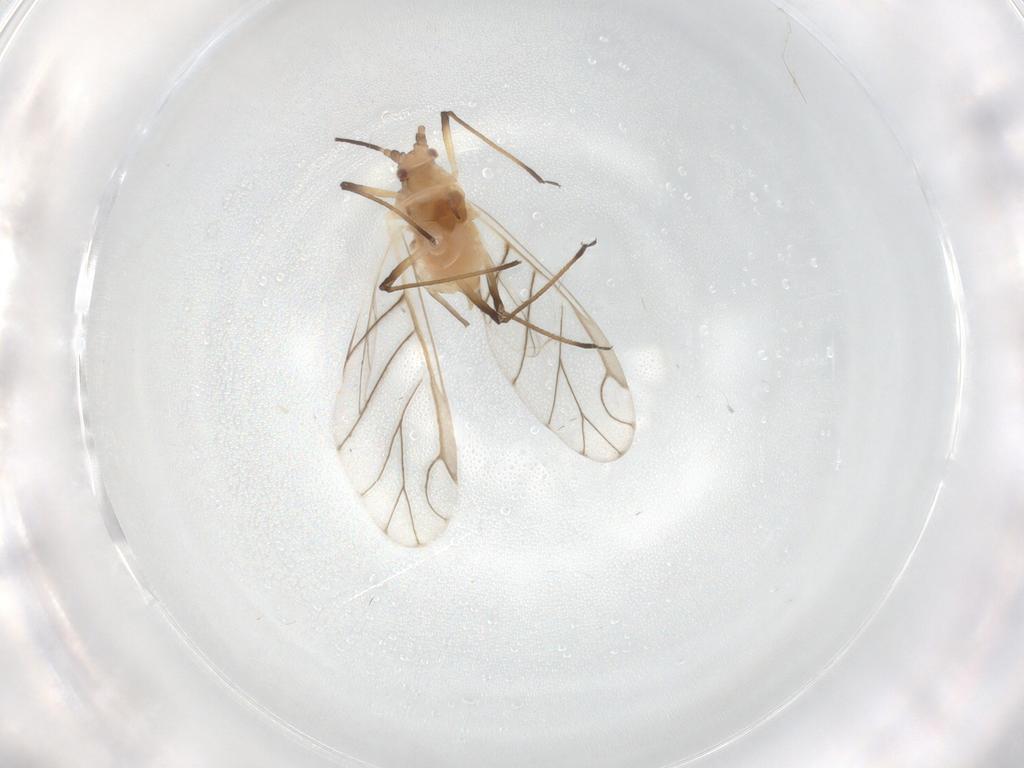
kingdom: Animalia
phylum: Arthropoda
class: Insecta
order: Hemiptera
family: Aphididae
